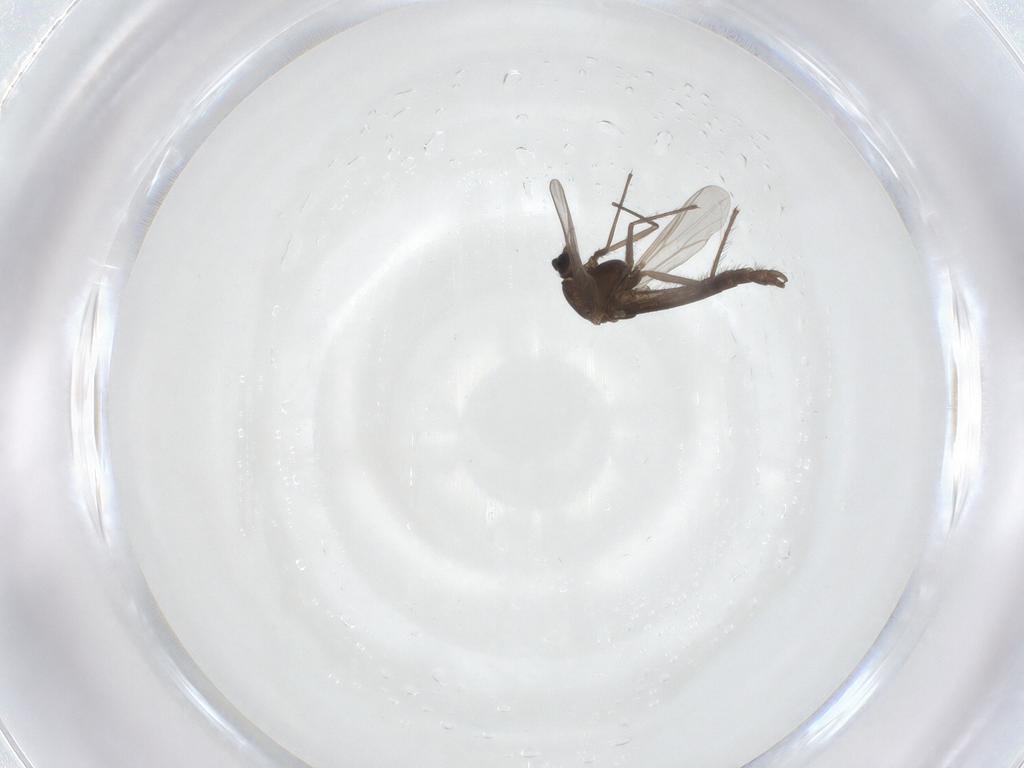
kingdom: Animalia
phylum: Arthropoda
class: Insecta
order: Diptera
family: Chironomidae
